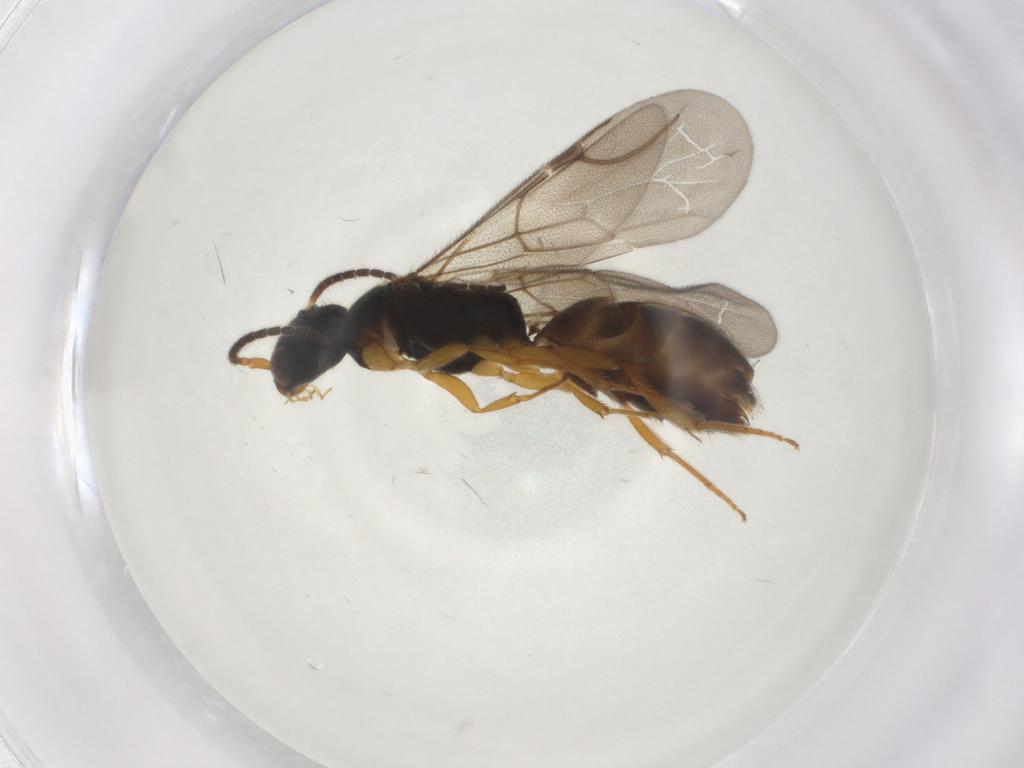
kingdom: Animalia
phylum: Arthropoda
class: Insecta
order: Hymenoptera
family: Bethylidae
